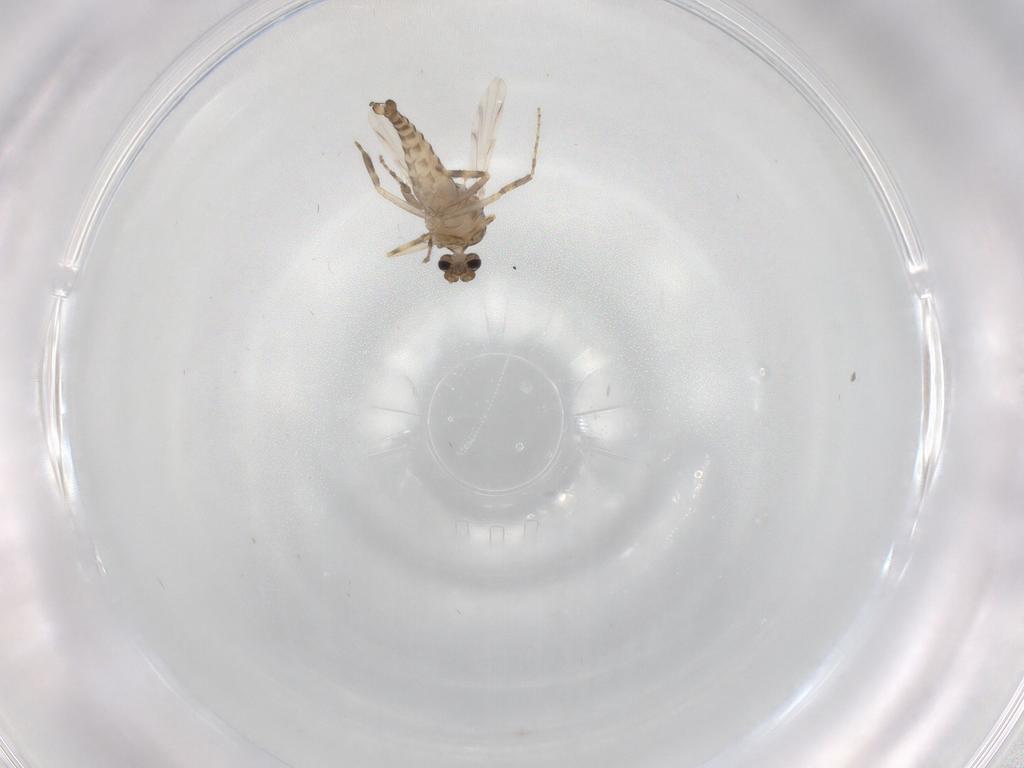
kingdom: Animalia
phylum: Arthropoda
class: Insecta
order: Diptera
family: Ceratopogonidae
